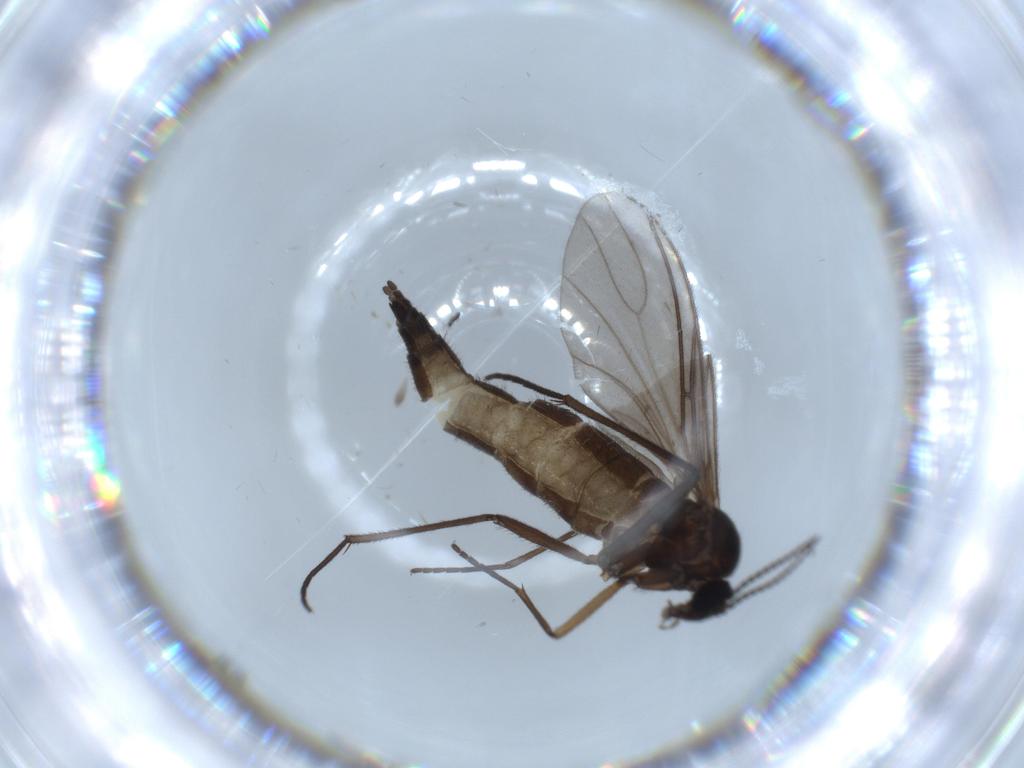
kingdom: Animalia
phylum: Arthropoda
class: Insecta
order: Diptera
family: Sciaridae
